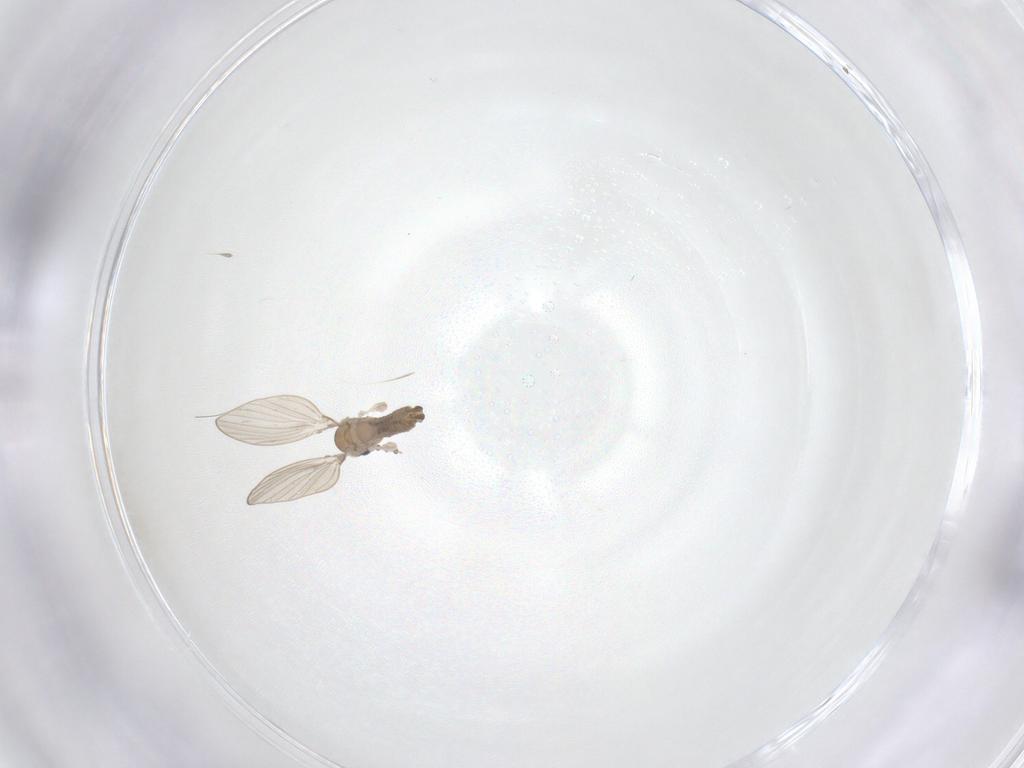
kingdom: Animalia
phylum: Arthropoda
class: Insecta
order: Diptera
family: Psychodidae
